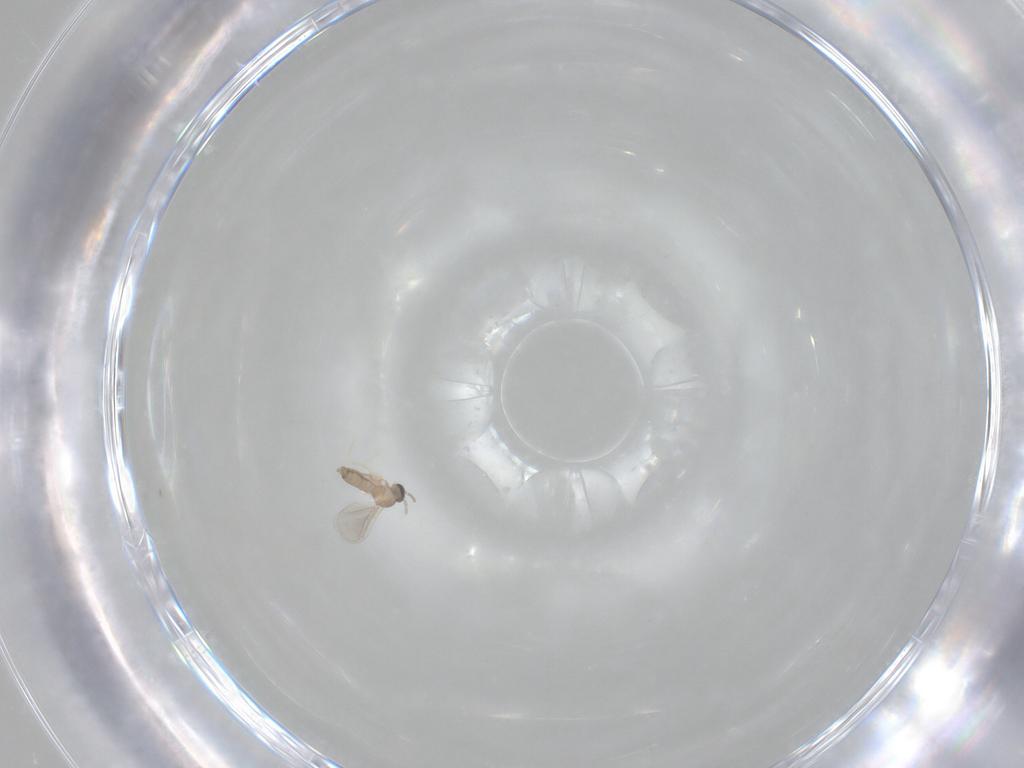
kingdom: Animalia
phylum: Arthropoda
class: Insecta
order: Diptera
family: Cecidomyiidae
